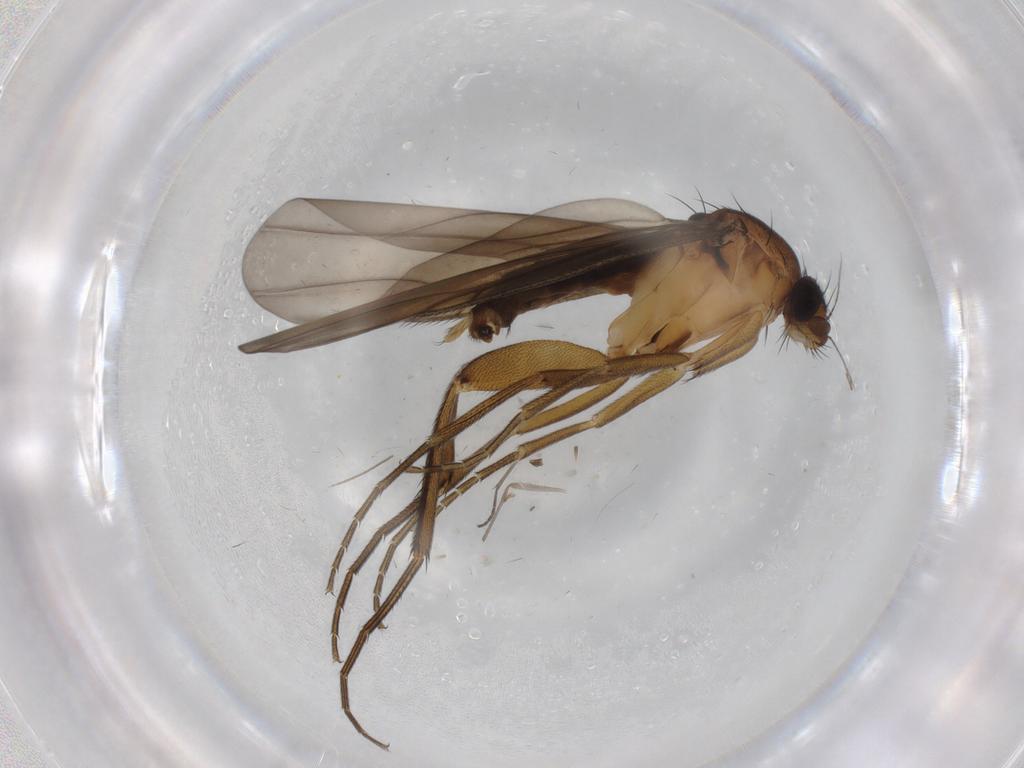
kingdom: Animalia
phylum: Arthropoda
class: Insecta
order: Diptera
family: Phoridae
